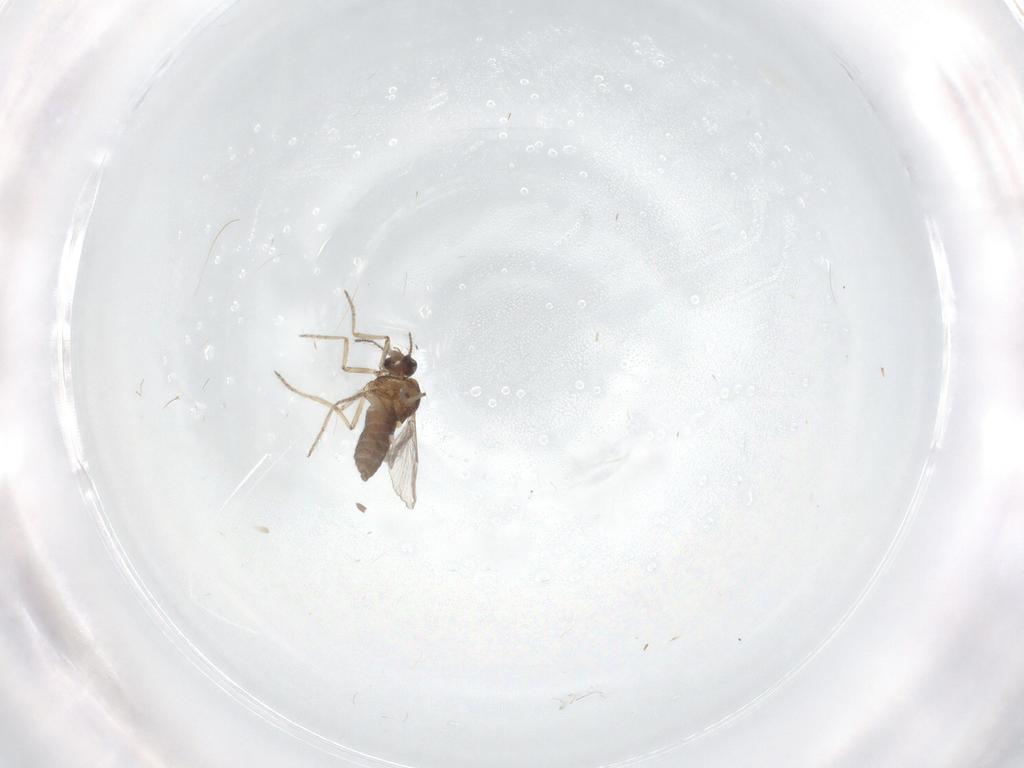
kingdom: Animalia
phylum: Arthropoda
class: Insecta
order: Diptera
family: Ceratopogonidae
